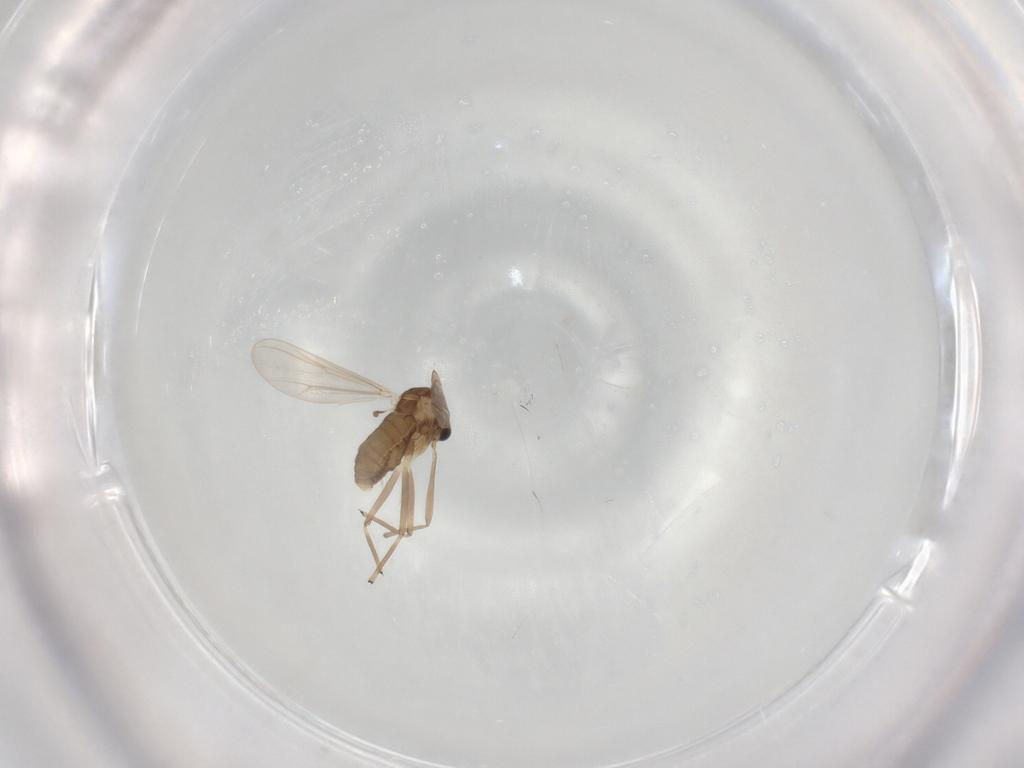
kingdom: Animalia
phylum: Arthropoda
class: Insecta
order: Diptera
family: Chironomidae
